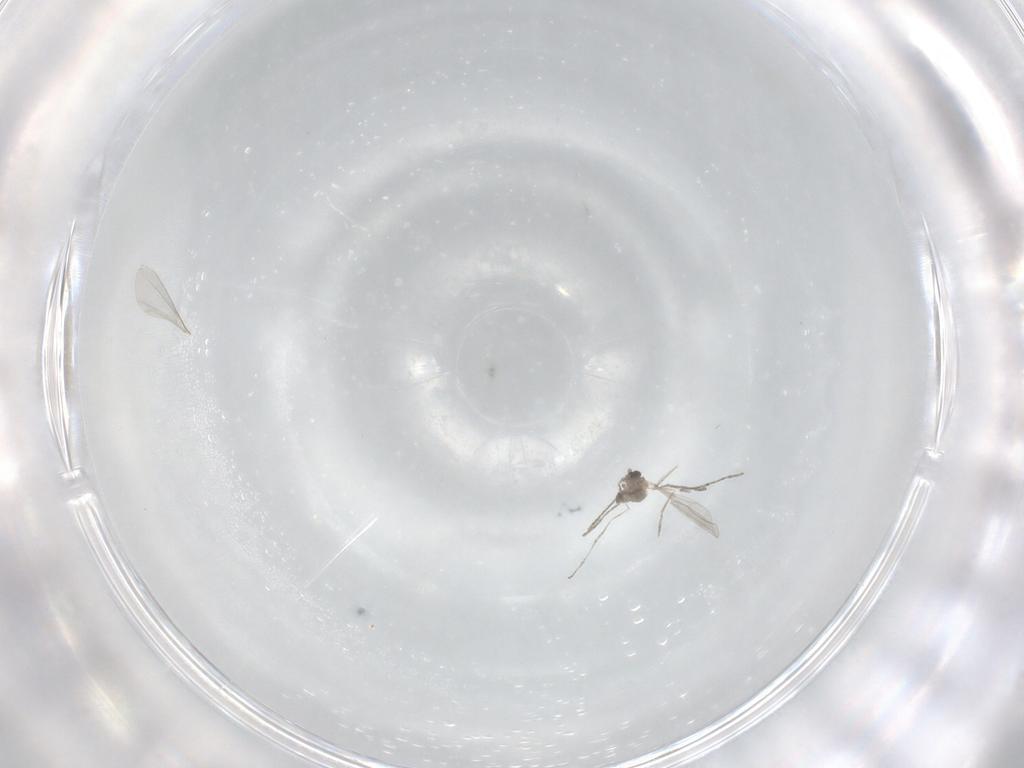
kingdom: Animalia
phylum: Arthropoda
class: Insecta
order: Diptera
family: Cecidomyiidae
